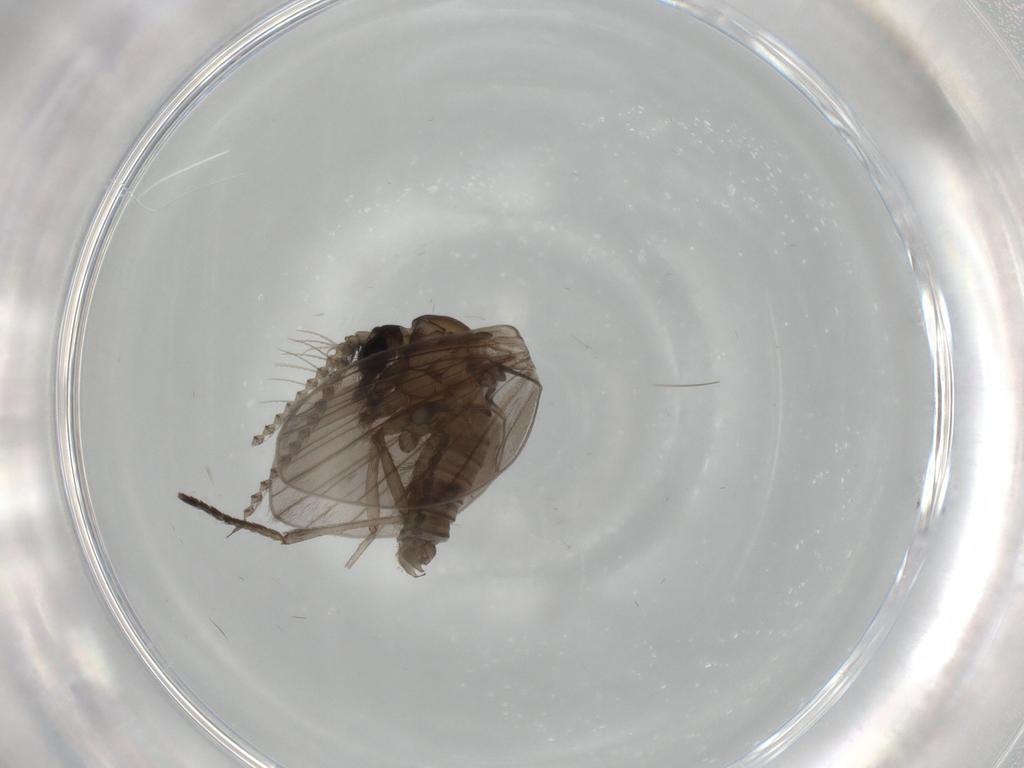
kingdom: Animalia
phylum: Arthropoda
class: Insecta
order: Diptera
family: Psychodidae
